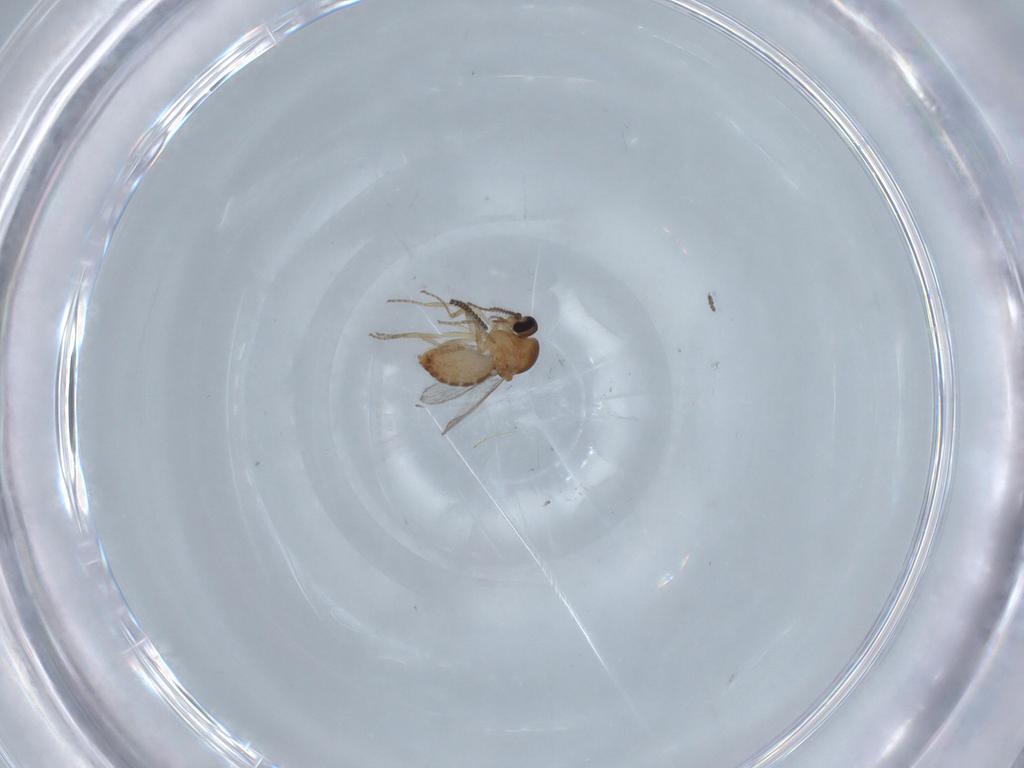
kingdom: Animalia
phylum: Arthropoda
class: Insecta
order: Diptera
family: Ceratopogonidae
